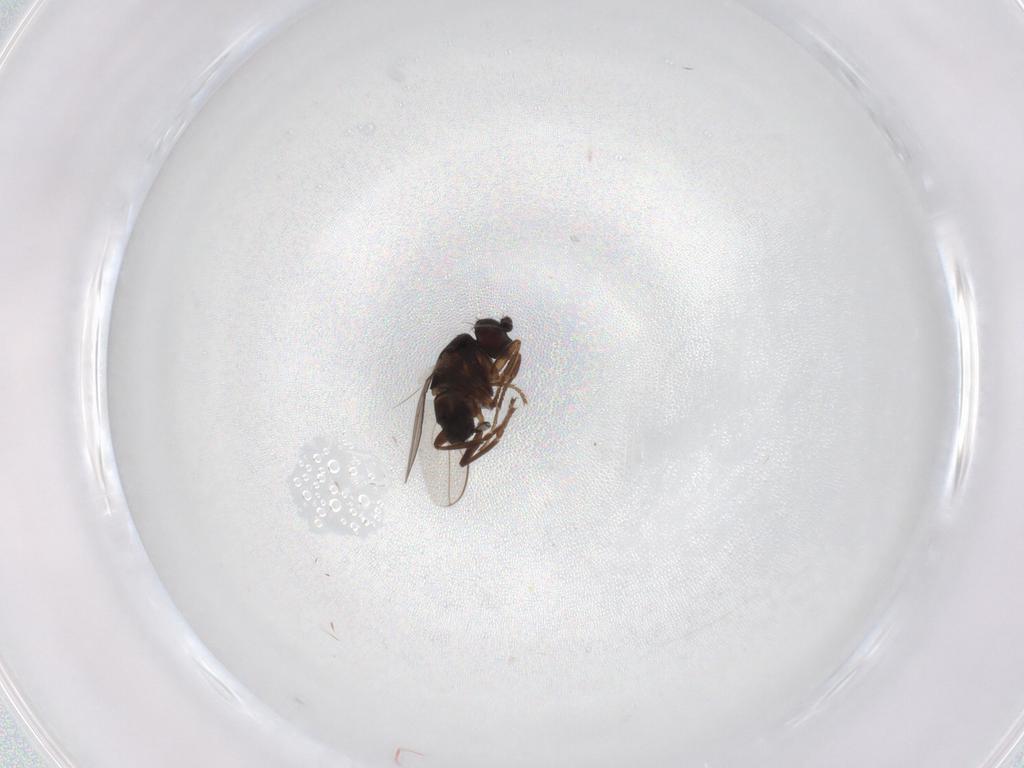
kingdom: Animalia
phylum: Arthropoda
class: Insecta
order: Diptera
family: Sphaeroceridae
